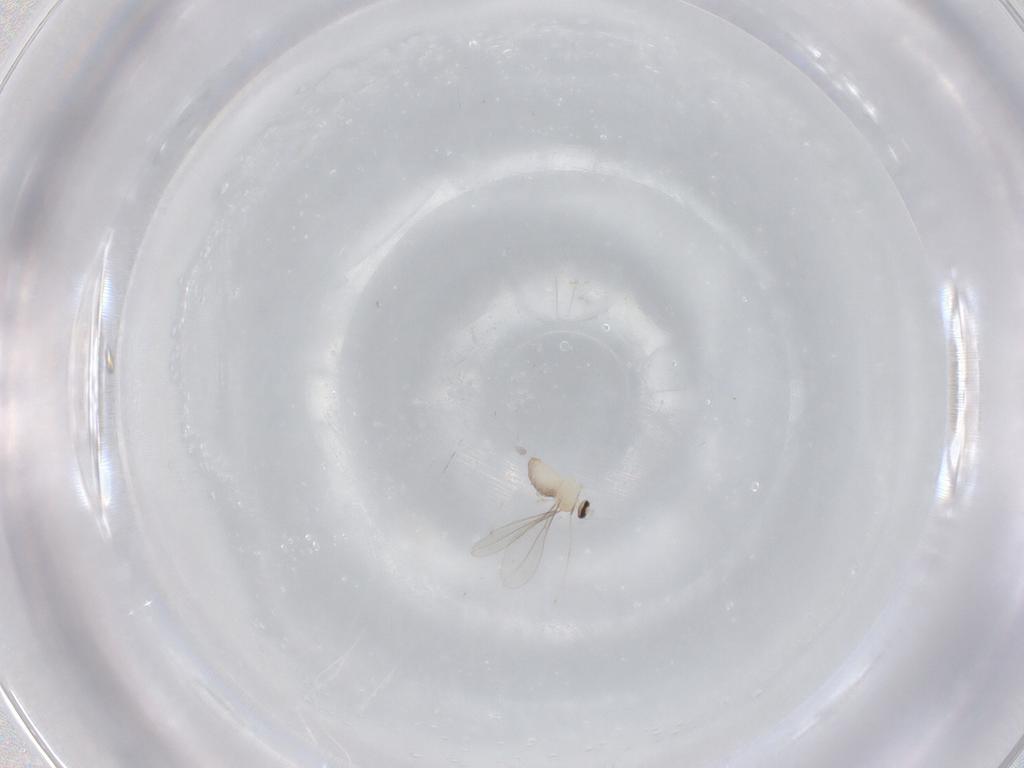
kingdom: Animalia
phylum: Arthropoda
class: Insecta
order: Diptera
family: Cecidomyiidae
